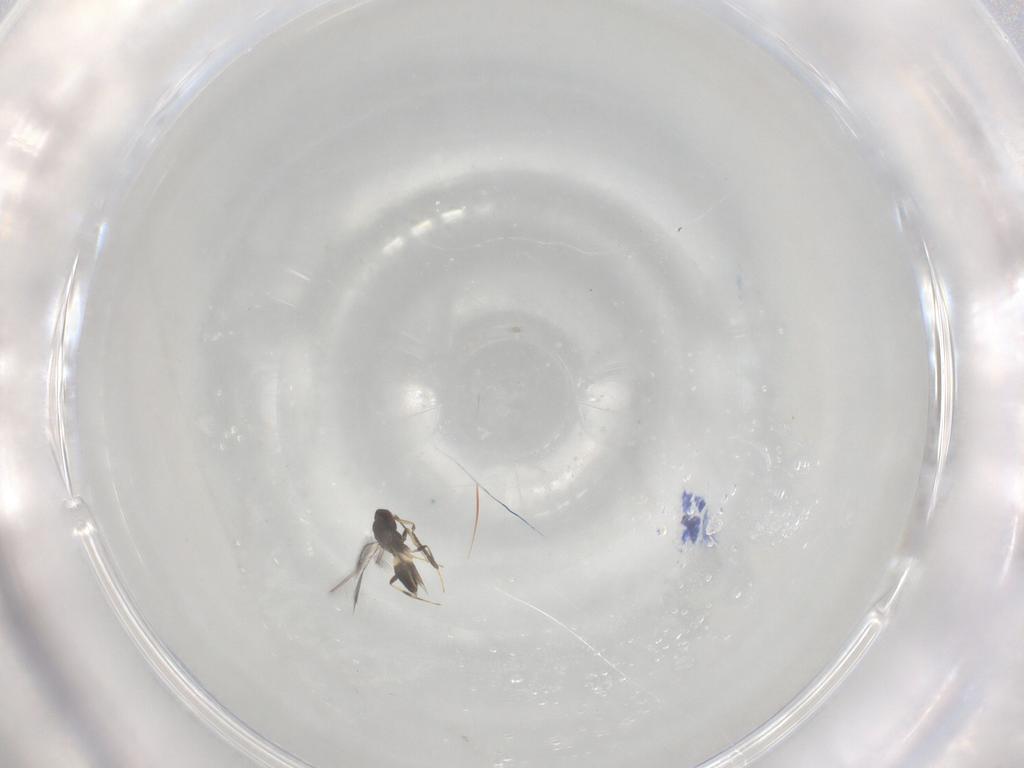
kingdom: Animalia
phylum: Arthropoda
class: Insecta
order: Hymenoptera
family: Mymaridae
